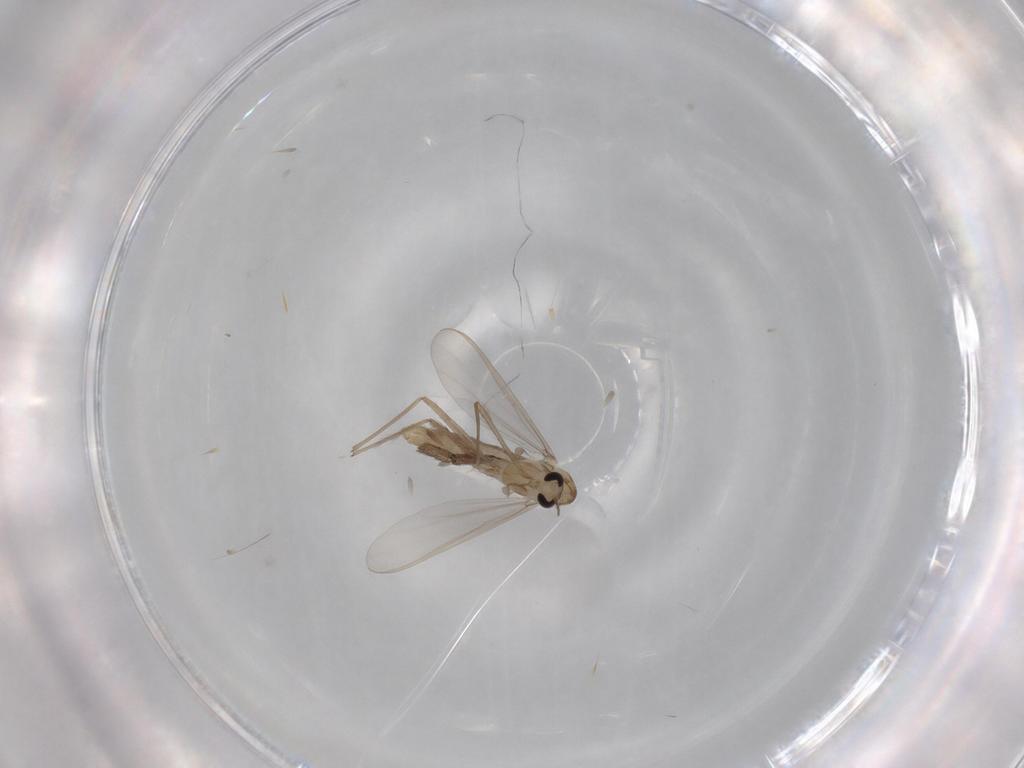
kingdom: Animalia
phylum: Arthropoda
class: Insecta
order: Diptera
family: Chironomidae
